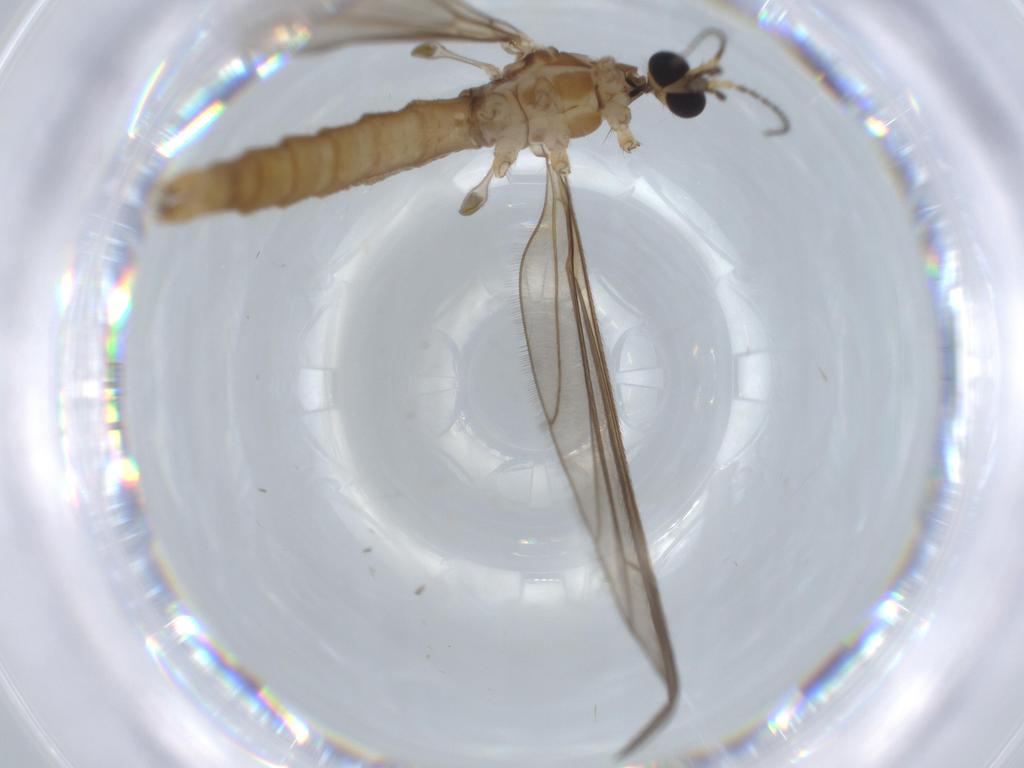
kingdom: Animalia
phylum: Arthropoda
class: Insecta
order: Diptera
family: Limoniidae
